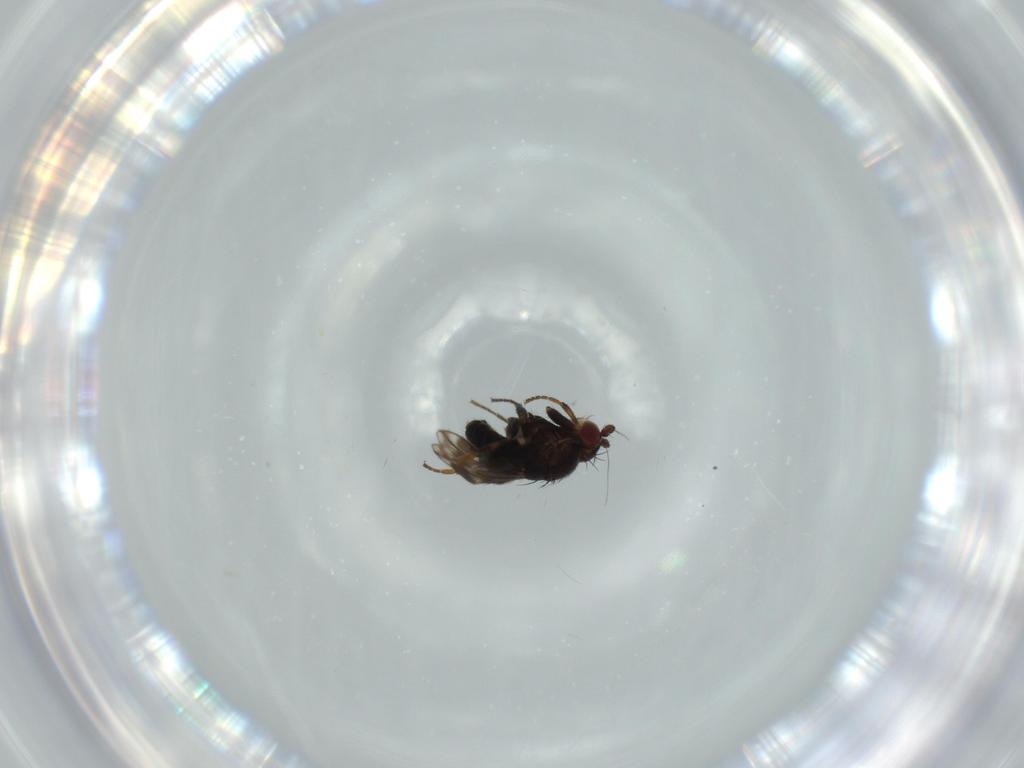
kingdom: Animalia
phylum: Arthropoda
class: Insecta
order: Diptera
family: Sphaeroceridae
